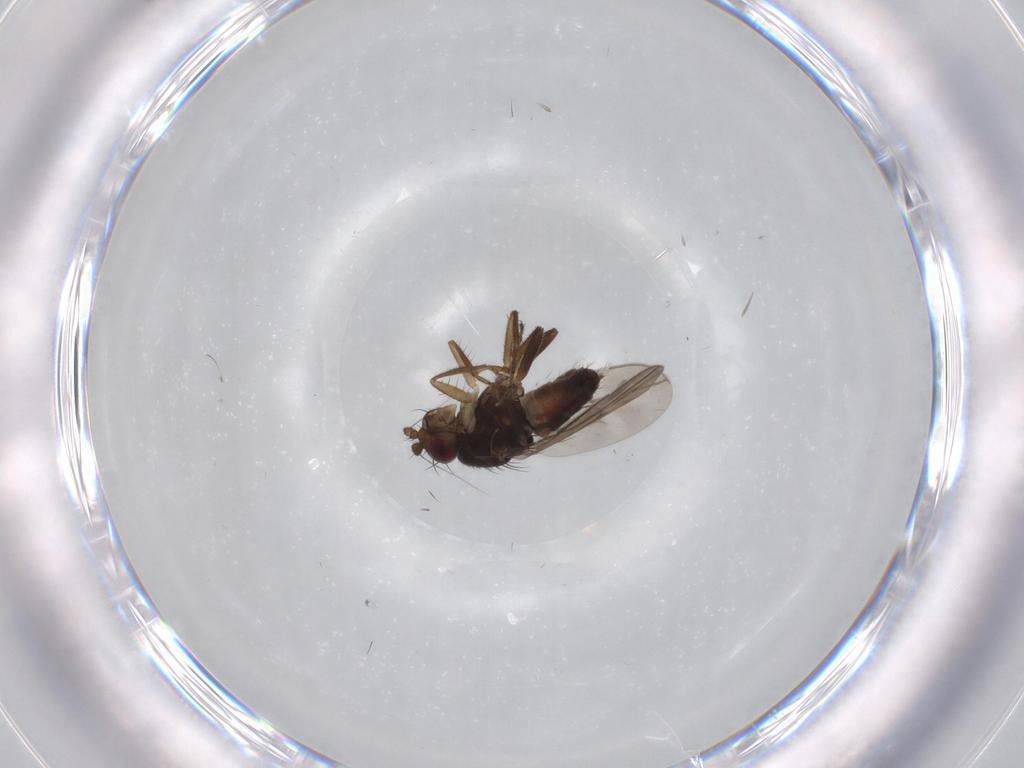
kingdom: Animalia
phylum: Arthropoda
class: Insecta
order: Diptera
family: Sphaeroceridae
